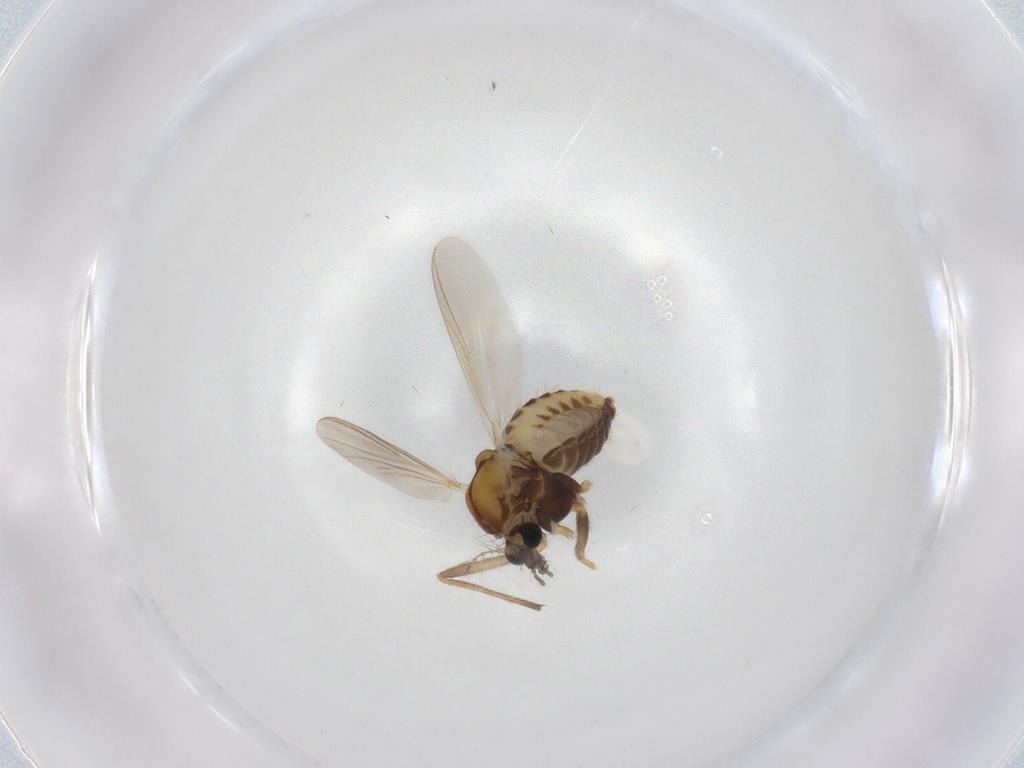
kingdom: Animalia
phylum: Arthropoda
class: Insecta
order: Diptera
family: Chironomidae
